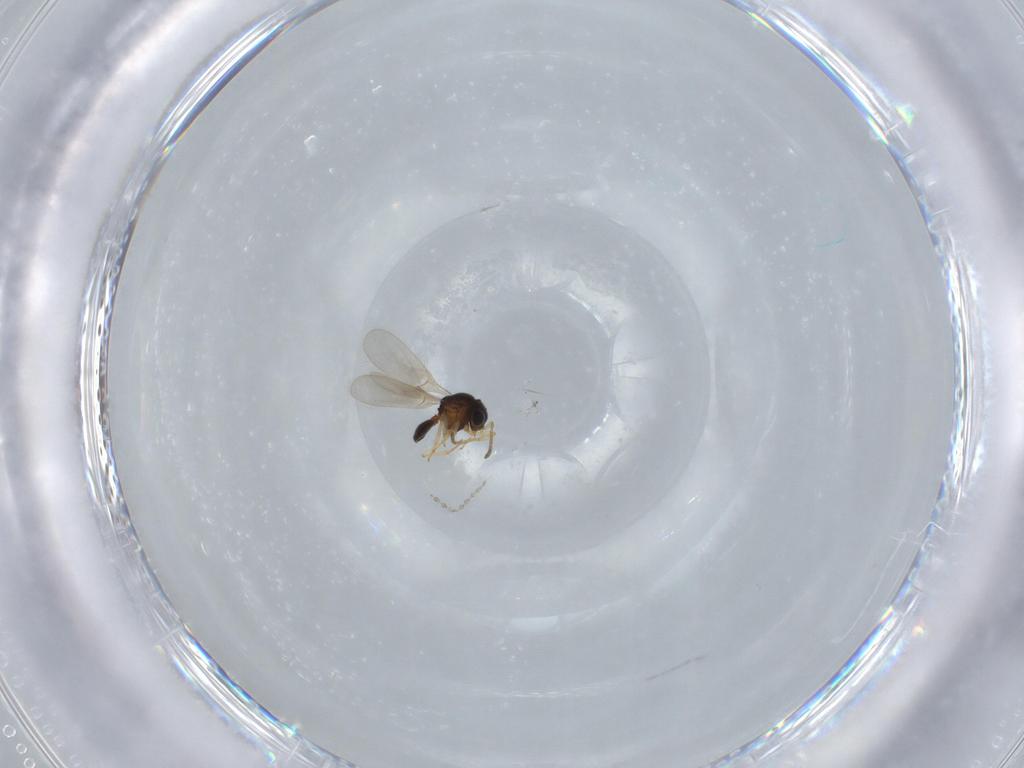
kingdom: Animalia
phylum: Arthropoda
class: Insecta
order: Hymenoptera
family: Scelionidae
